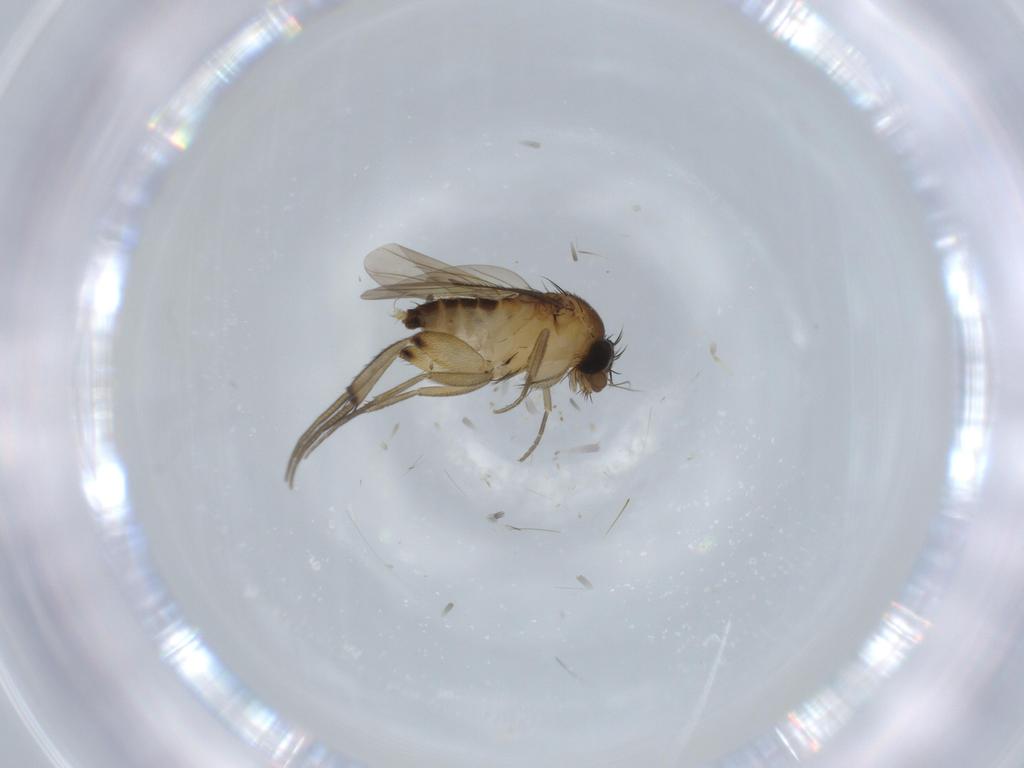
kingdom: Animalia
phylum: Arthropoda
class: Insecta
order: Diptera
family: Phoridae
